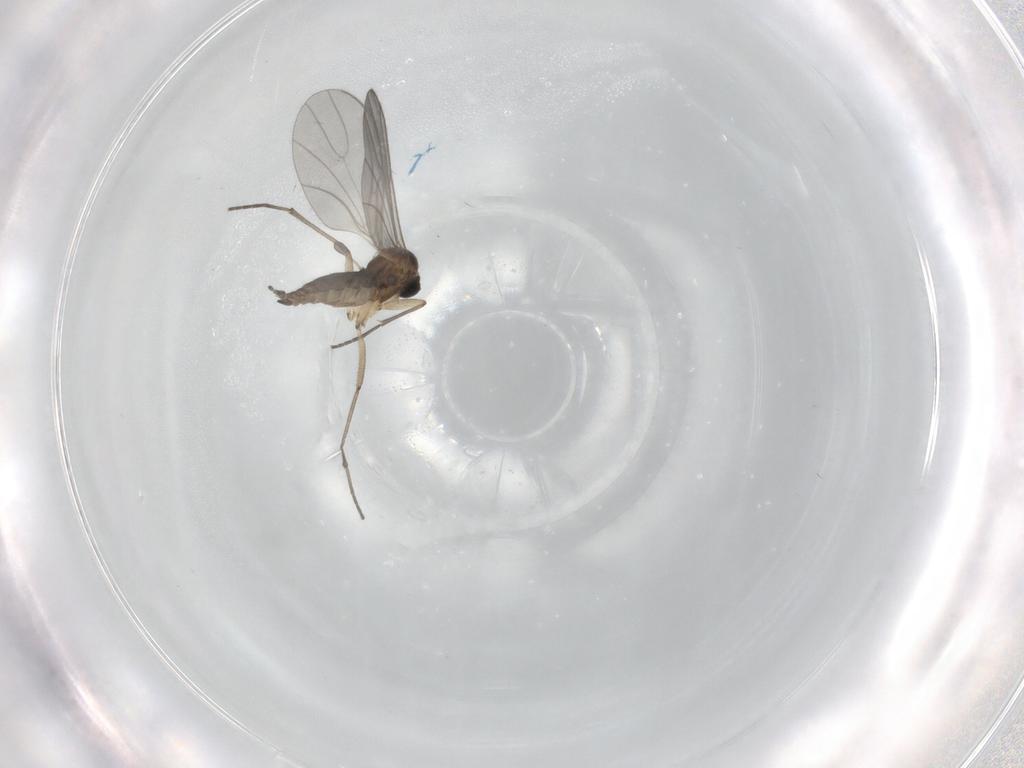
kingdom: Animalia
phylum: Arthropoda
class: Insecta
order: Diptera
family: Sciaridae
